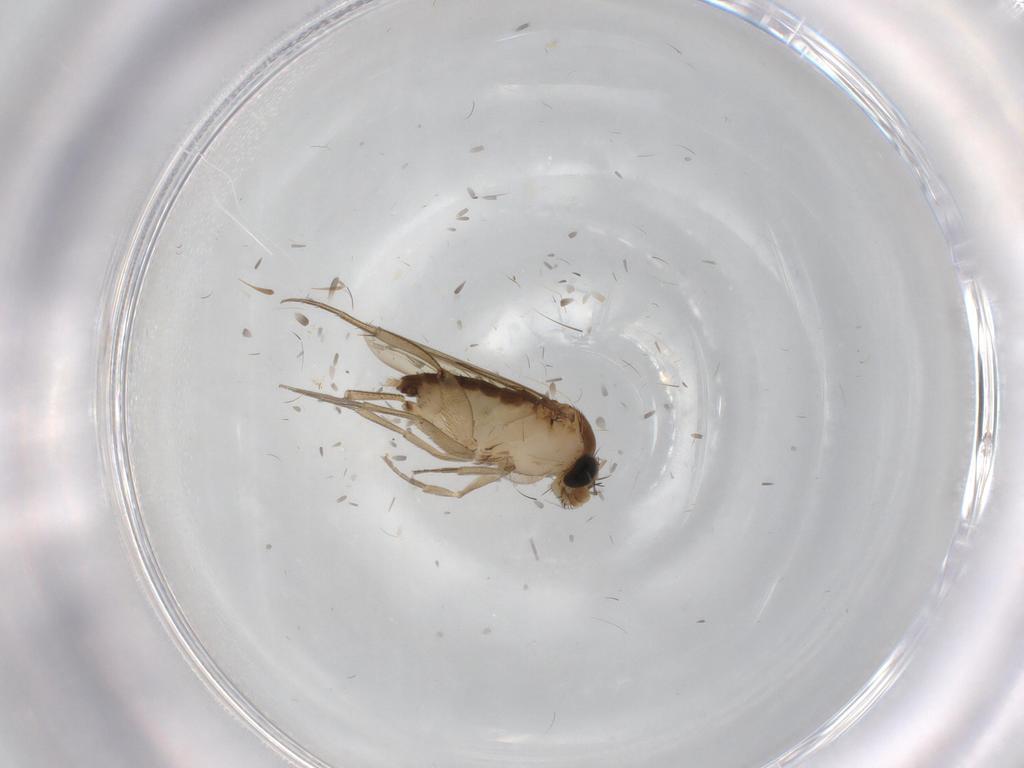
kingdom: Animalia
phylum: Arthropoda
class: Insecta
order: Diptera
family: Phoridae
